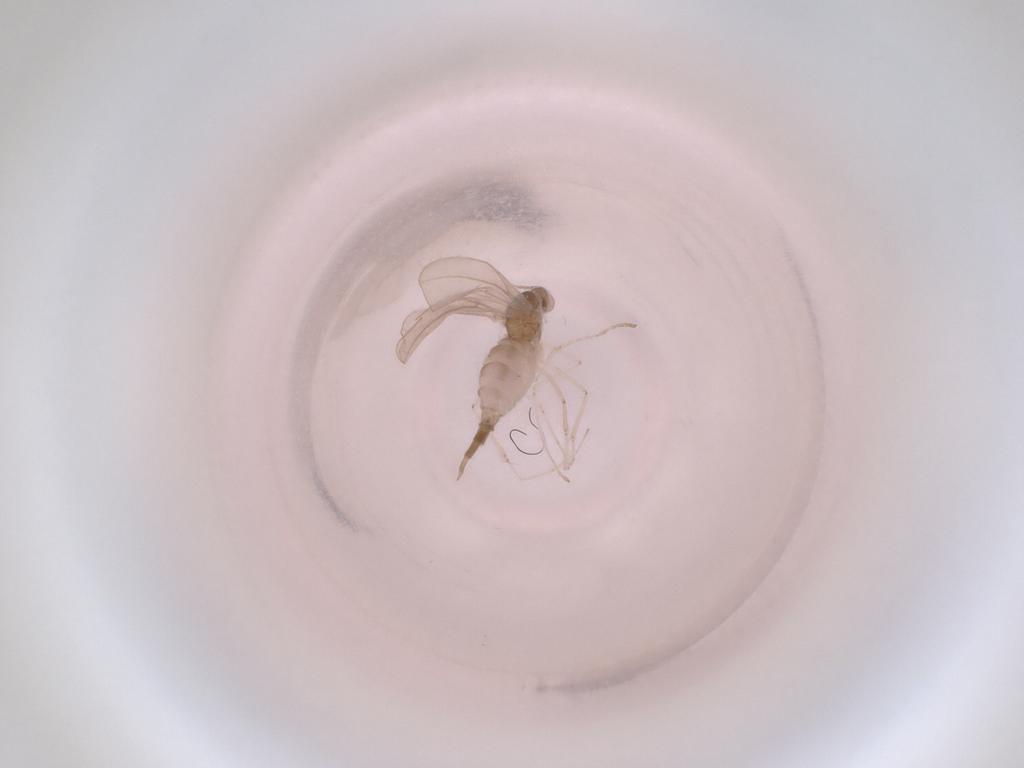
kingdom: Animalia
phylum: Arthropoda
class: Insecta
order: Diptera
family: Cecidomyiidae
